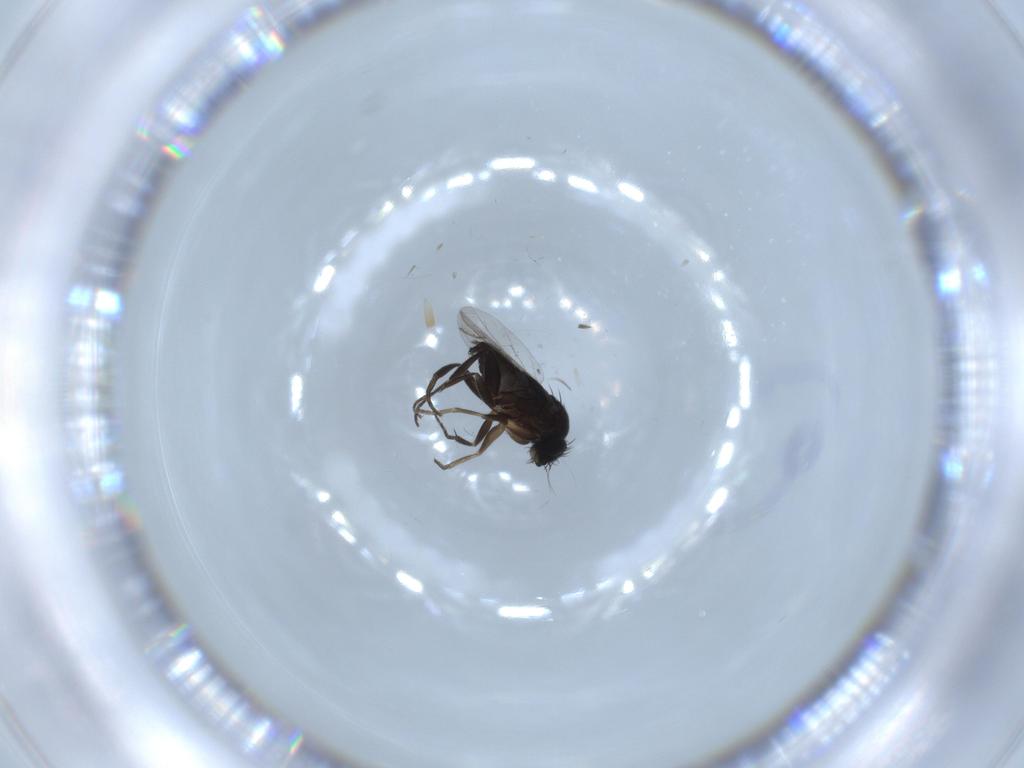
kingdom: Animalia
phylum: Arthropoda
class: Insecta
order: Diptera
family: Phoridae
